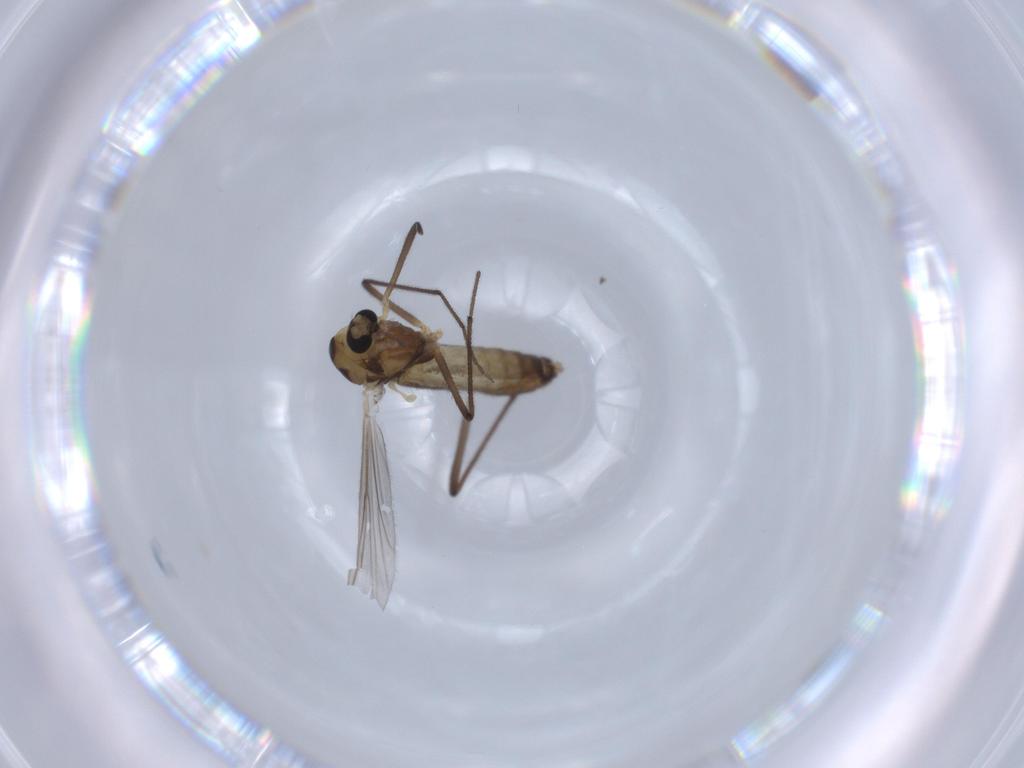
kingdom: Animalia
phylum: Arthropoda
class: Insecta
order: Diptera
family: Chironomidae
